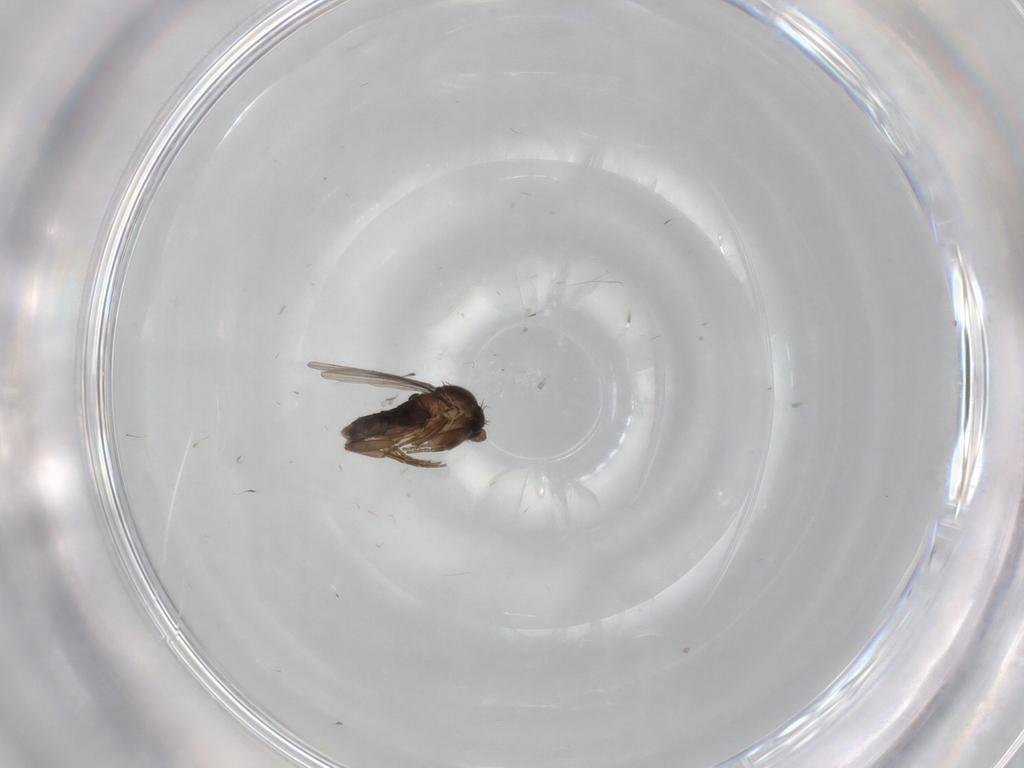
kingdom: Animalia
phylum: Arthropoda
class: Insecta
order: Diptera
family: Phoridae
